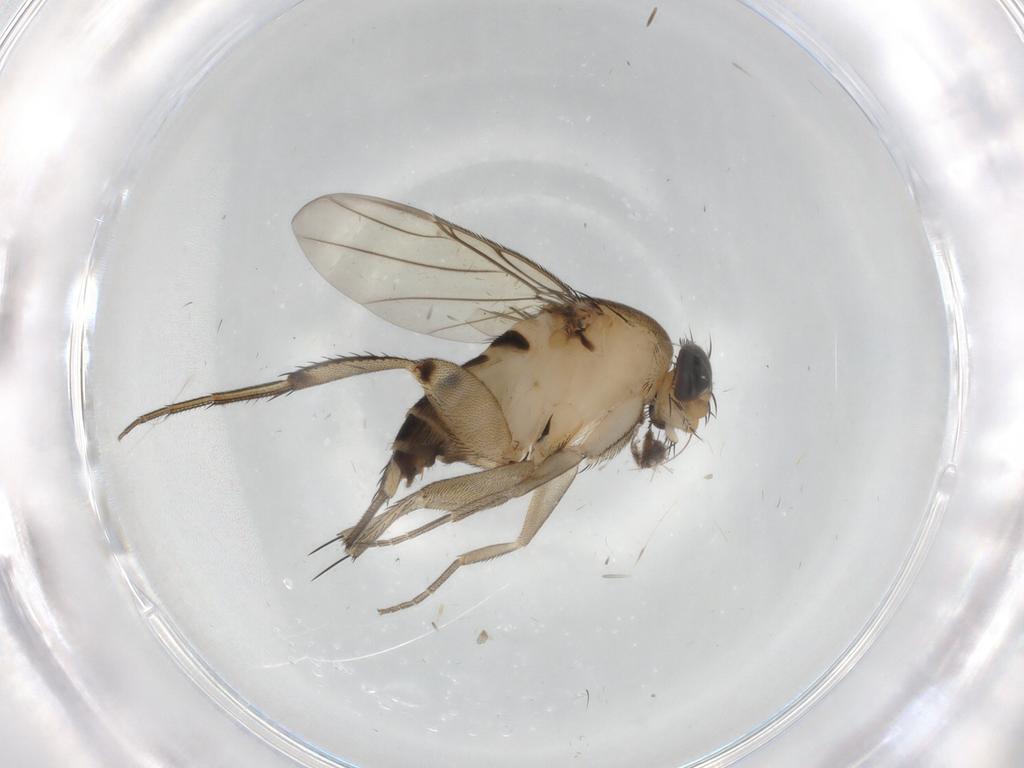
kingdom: Animalia
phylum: Arthropoda
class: Insecta
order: Diptera
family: Phoridae
